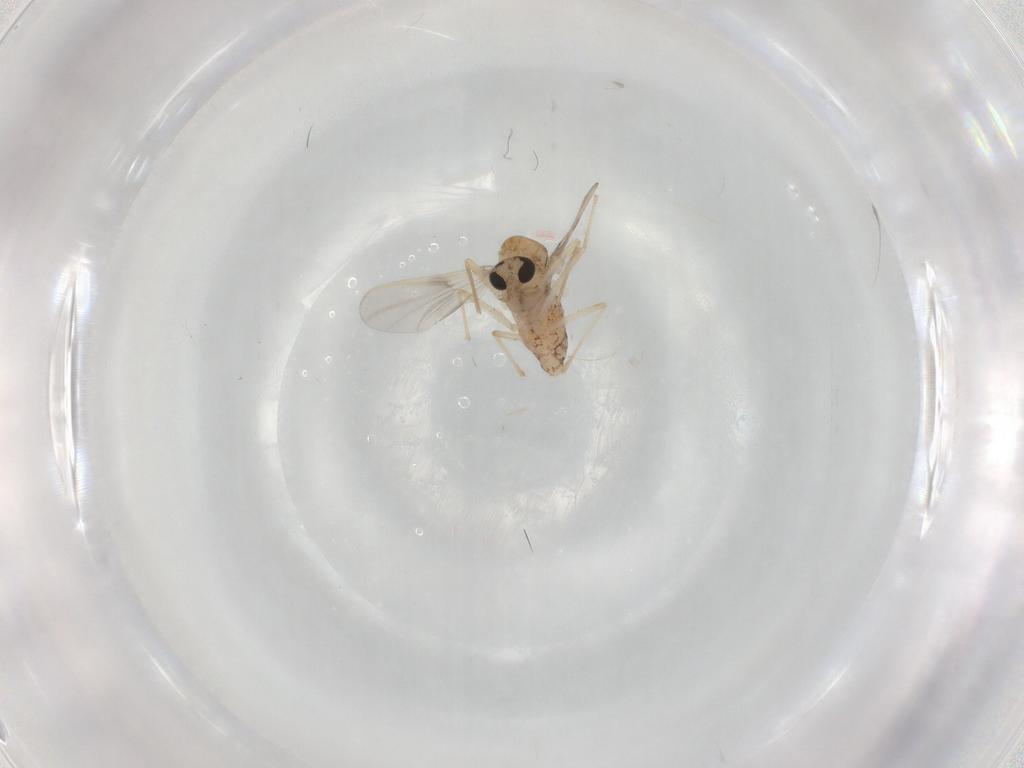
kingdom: Animalia
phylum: Arthropoda
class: Insecta
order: Diptera
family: Chironomidae
